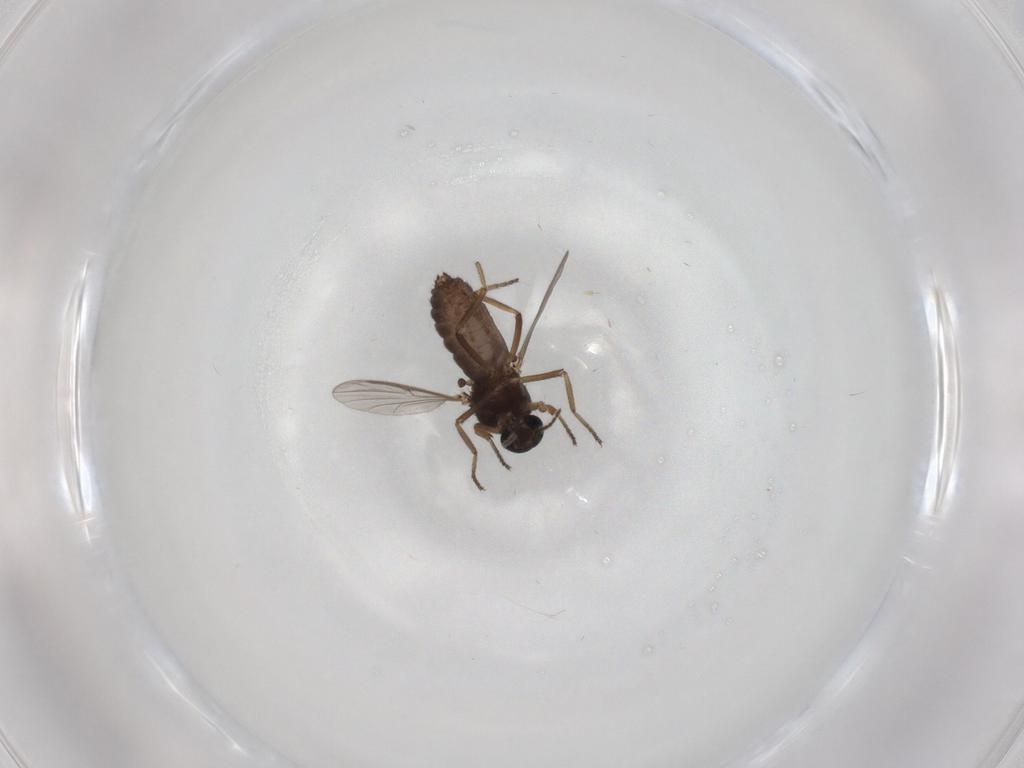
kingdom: Animalia
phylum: Arthropoda
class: Insecta
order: Diptera
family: Ceratopogonidae
